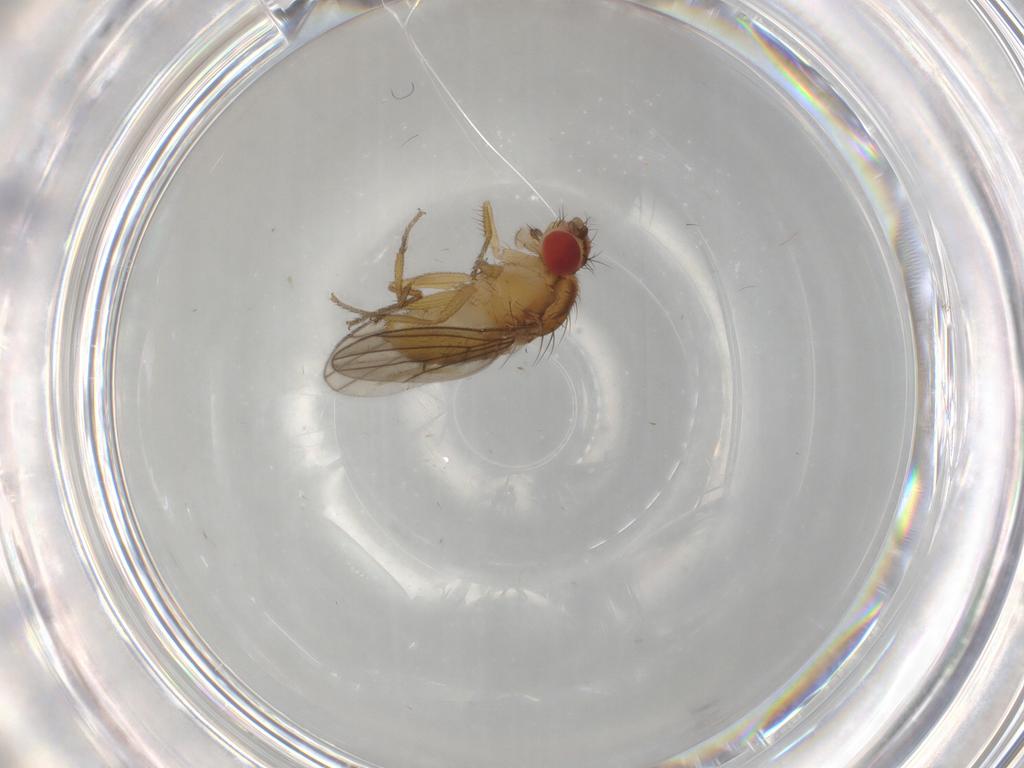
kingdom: Animalia
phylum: Arthropoda
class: Insecta
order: Diptera
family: Drosophilidae
